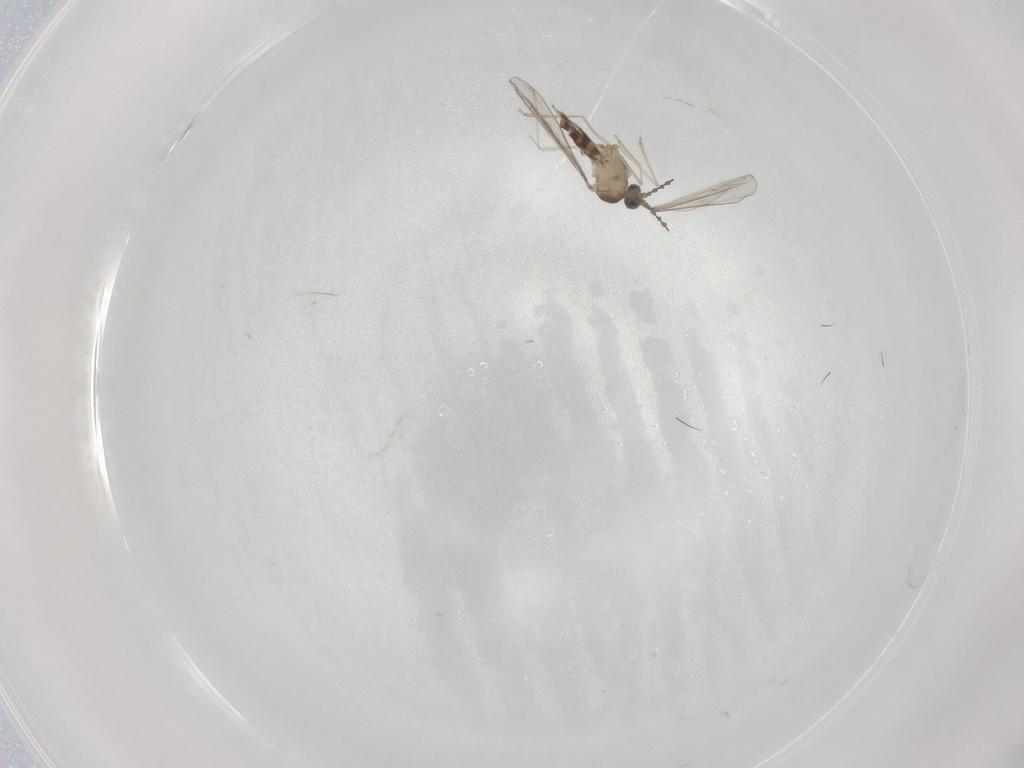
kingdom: Animalia
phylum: Arthropoda
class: Insecta
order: Diptera
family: Cecidomyiidae
